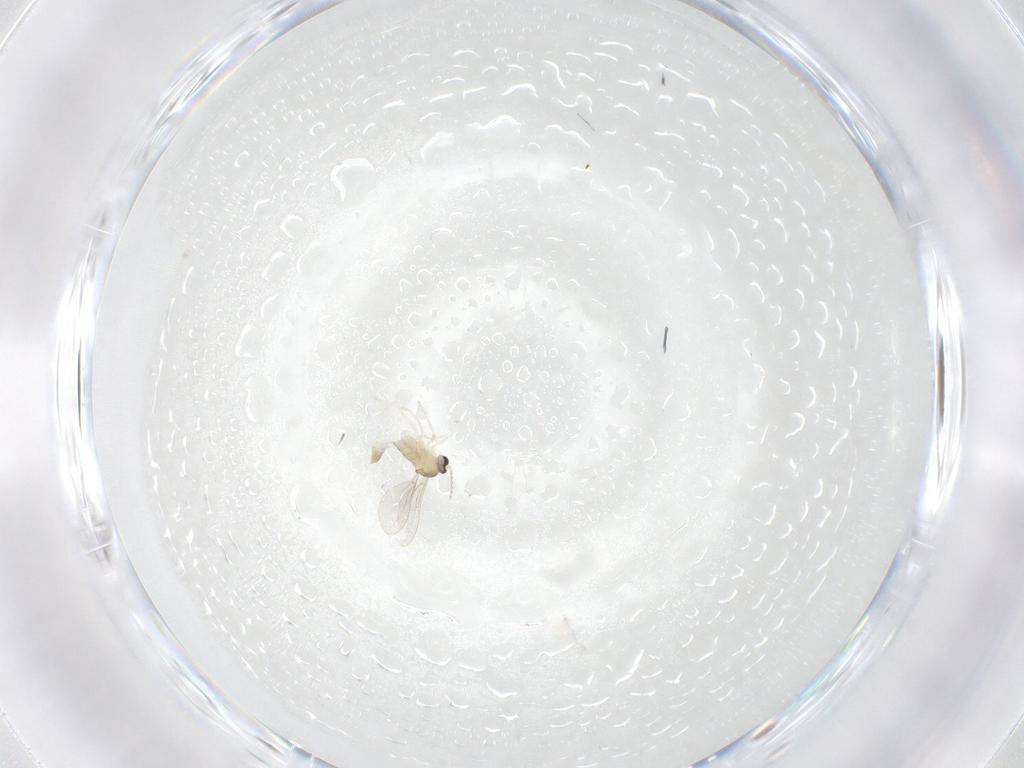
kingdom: Animalia
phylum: Arthropoda
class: Insecta
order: Diptera
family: Cecidomyiidae
